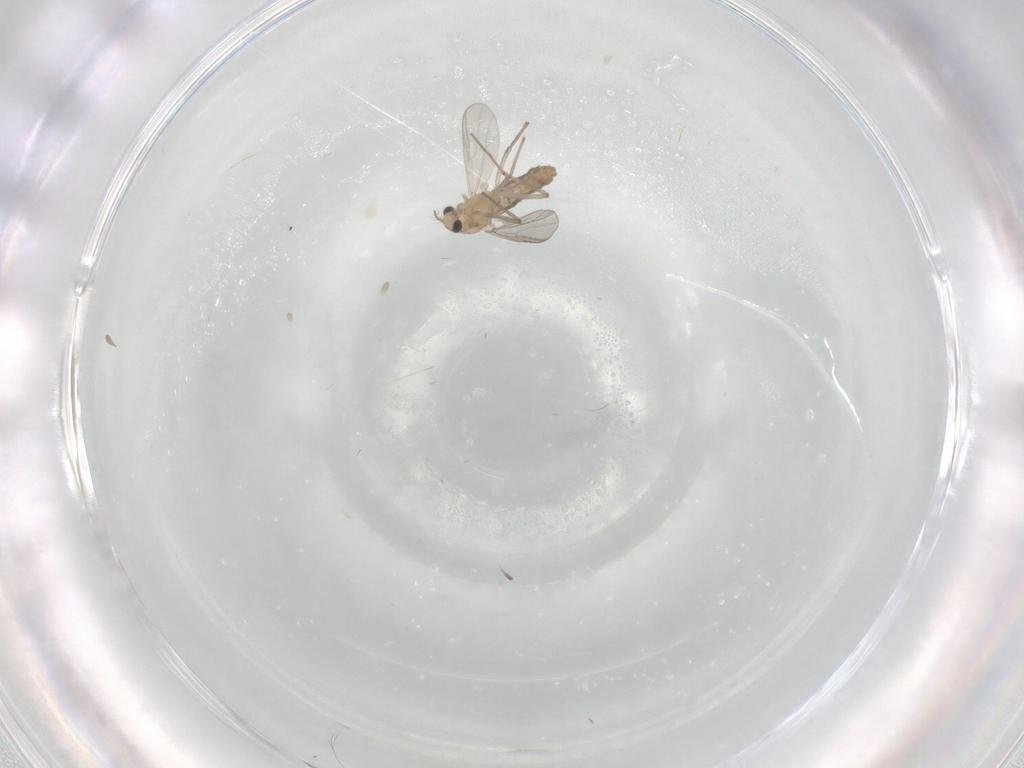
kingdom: Animalia
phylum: Arthropoda
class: Insecta
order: Diptera
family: Chironomidae
